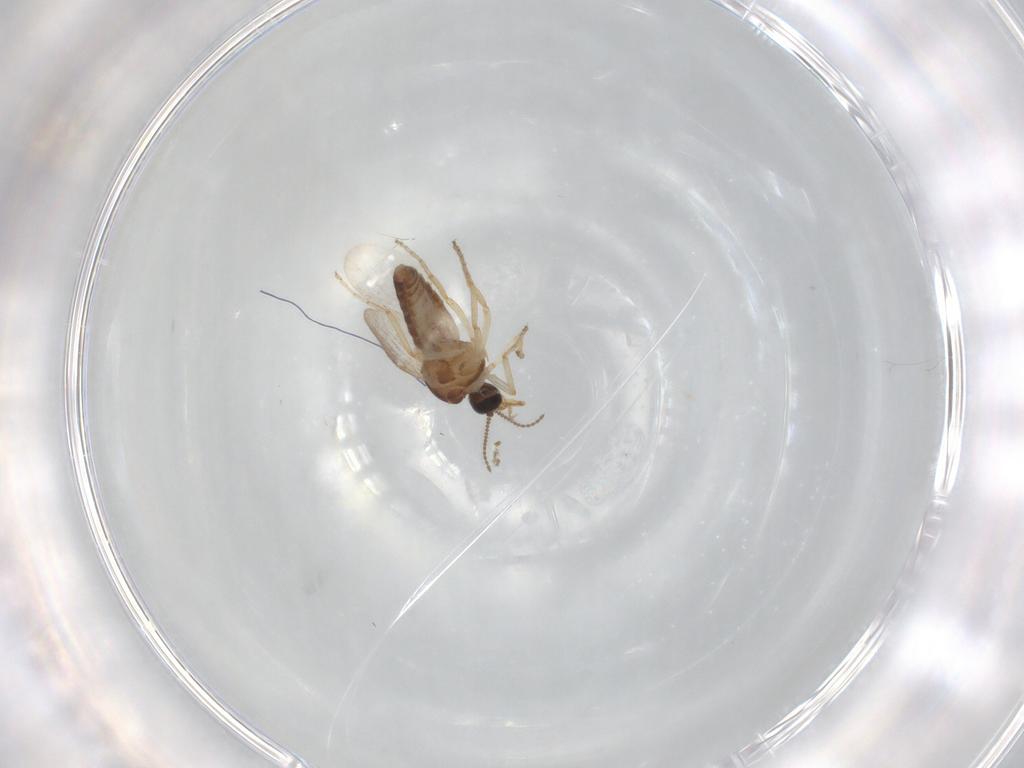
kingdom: Animalia
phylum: Arthropoda
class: Insecta
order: Diptera
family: Ceratopogonidae
